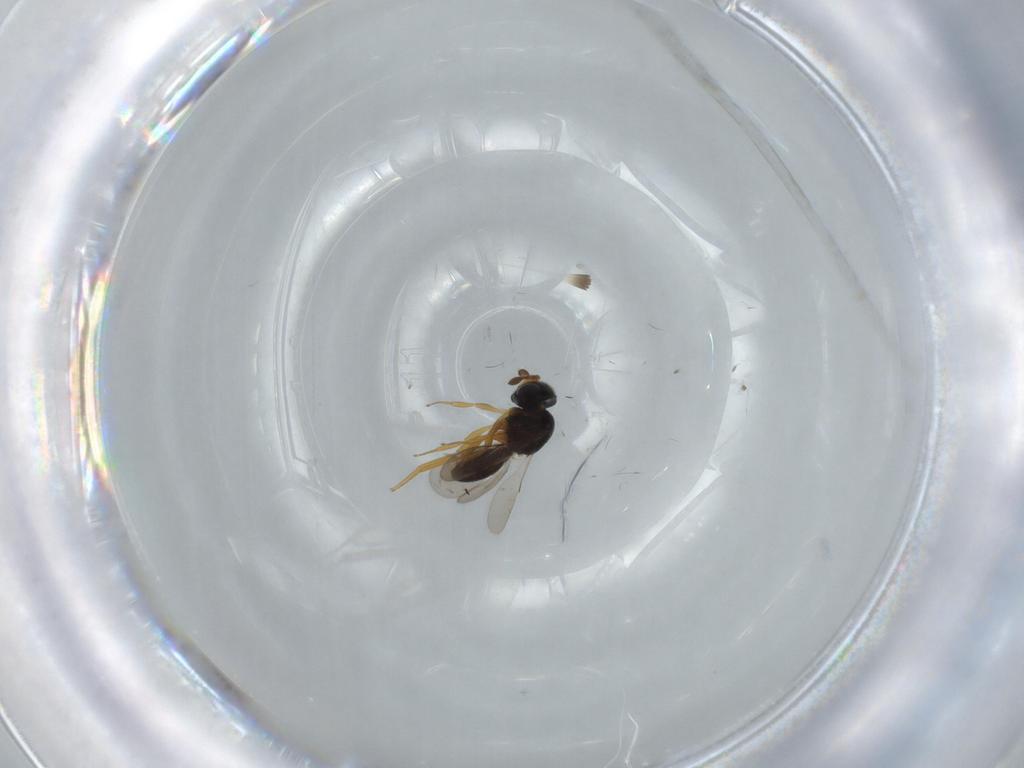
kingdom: Animalia
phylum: Arthropoda
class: Insecta
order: Hymenoptera
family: Scelionidae
